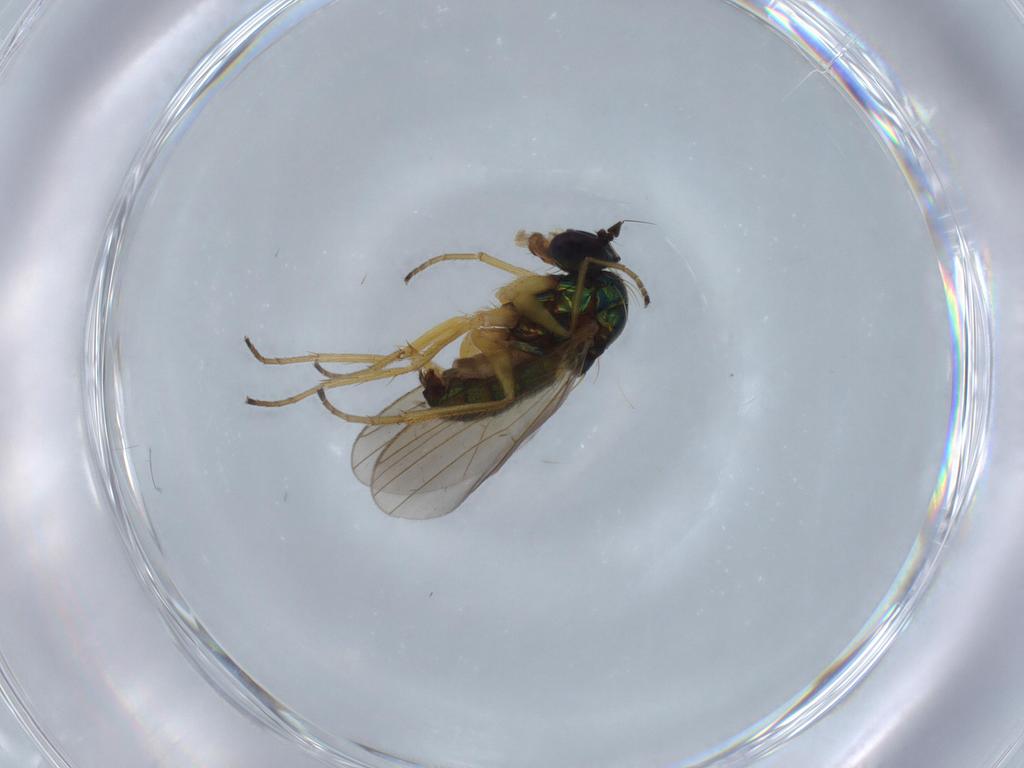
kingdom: Animalia
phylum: Arthropoda
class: Insecta
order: Diptera
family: Dolichopodidae
